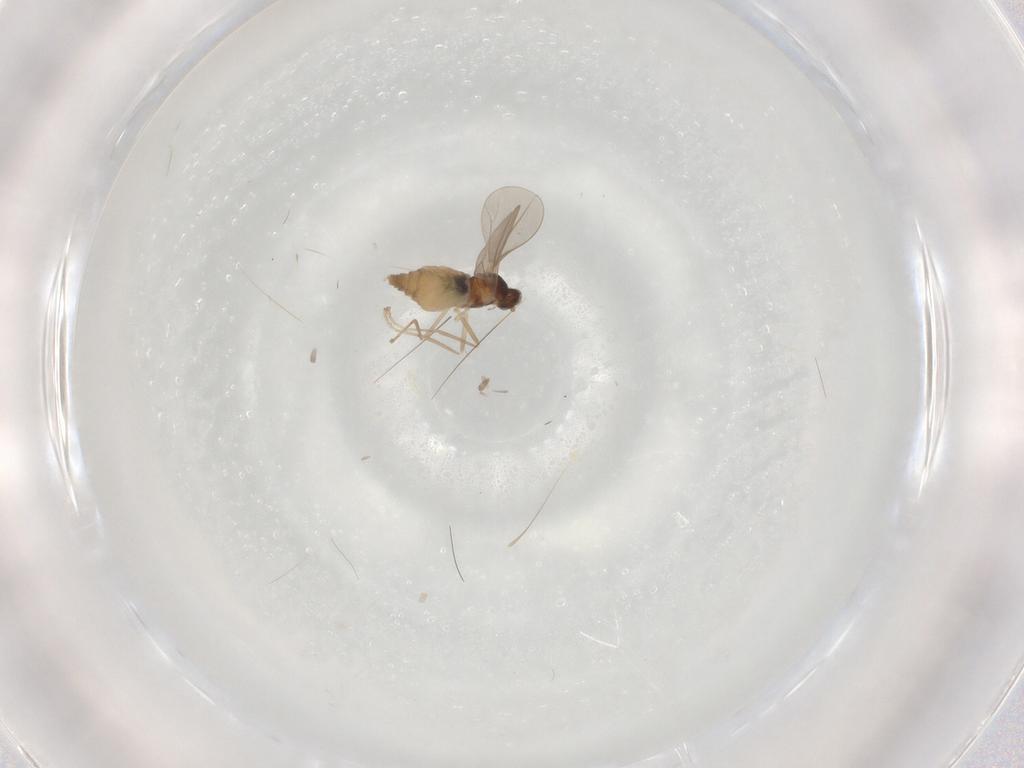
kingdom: Animalia
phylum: Arthropoda
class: Insecta
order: Diptera
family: Cecidomyiidae
